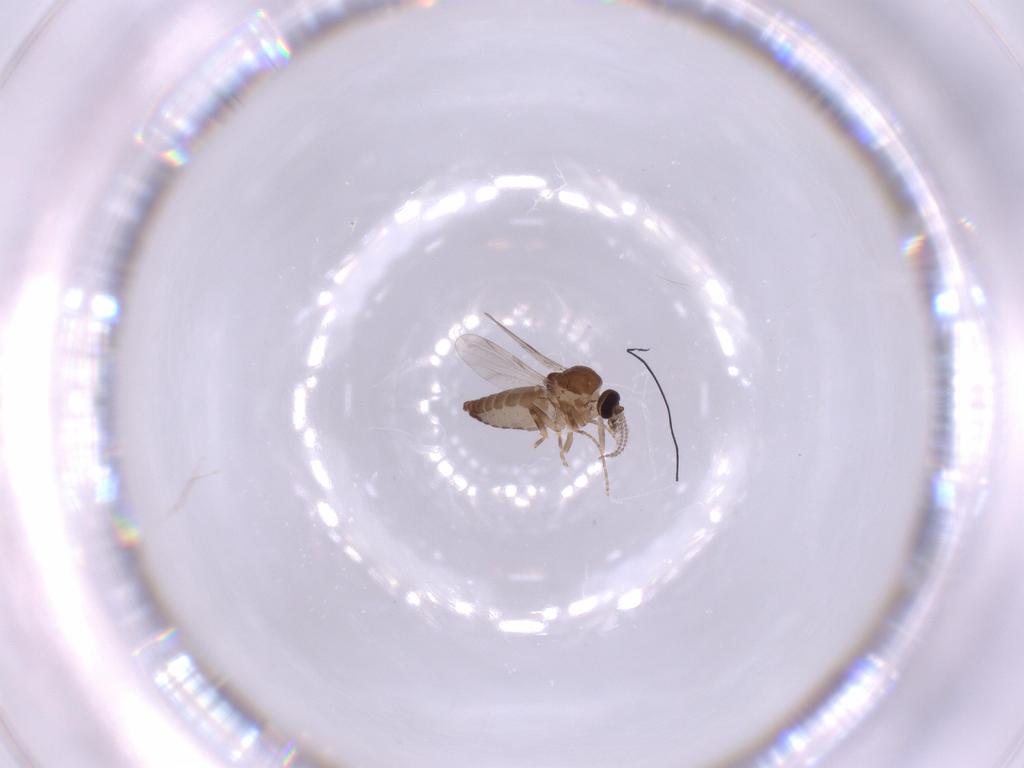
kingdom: Animalia
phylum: Arthropoda
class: Insecta
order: Diptera
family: Ceratopogonidae
